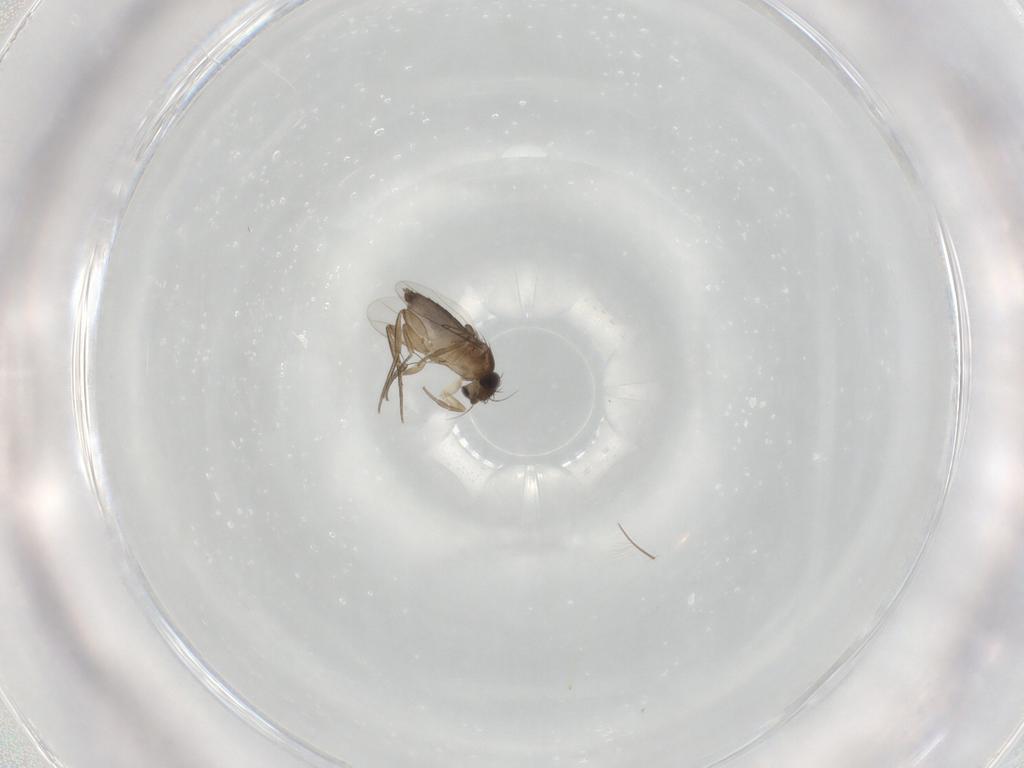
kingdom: Animalia
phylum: Arthropoda
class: Insecta
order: Diptera
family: Phoridae
